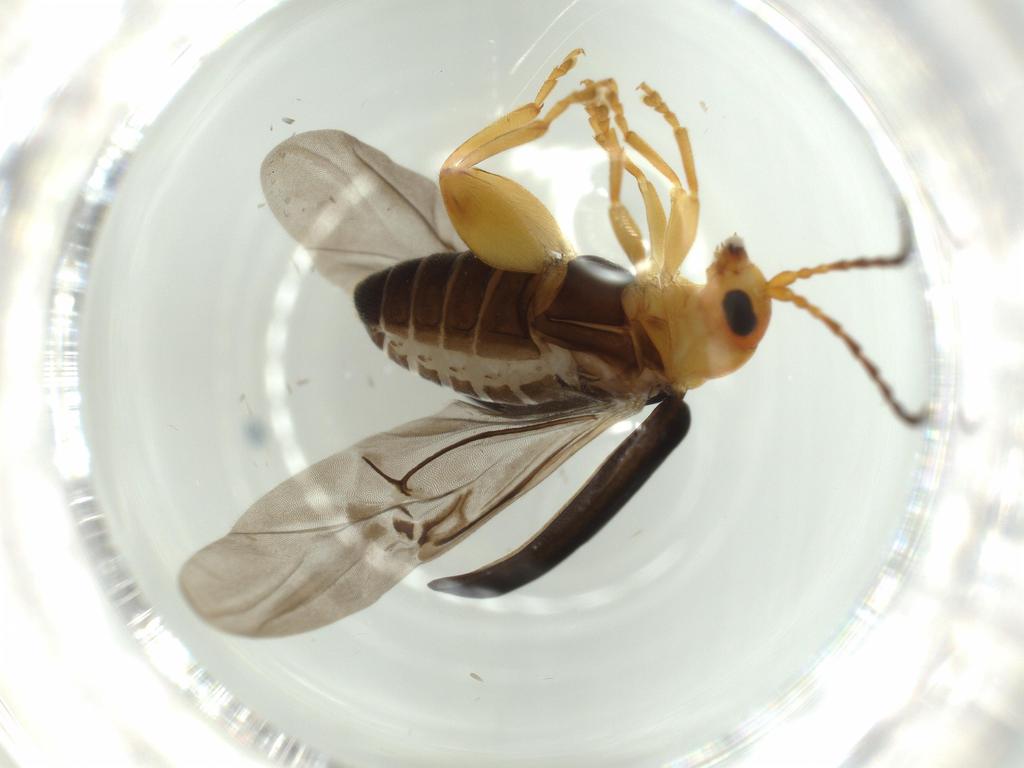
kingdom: Animalia
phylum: Arthropoda
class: Insecta
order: Coleoptera
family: Chrysomelidae
